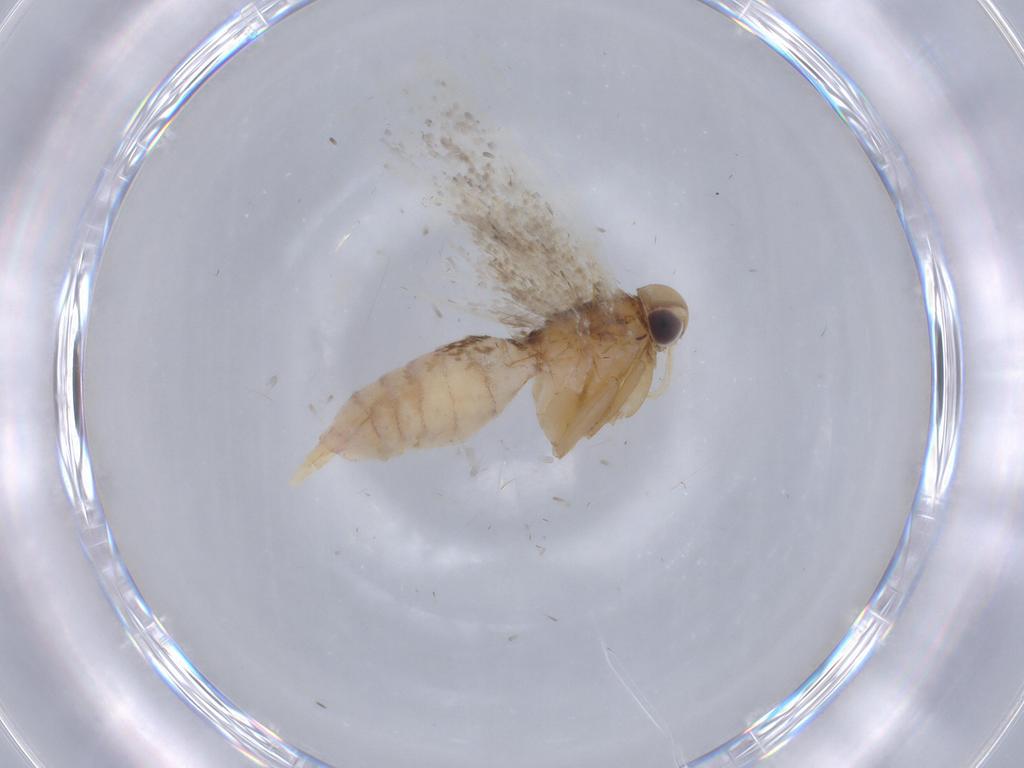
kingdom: Animalia
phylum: Arthropoda
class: Insecta
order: Lepidoptera
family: Gelechiidae
